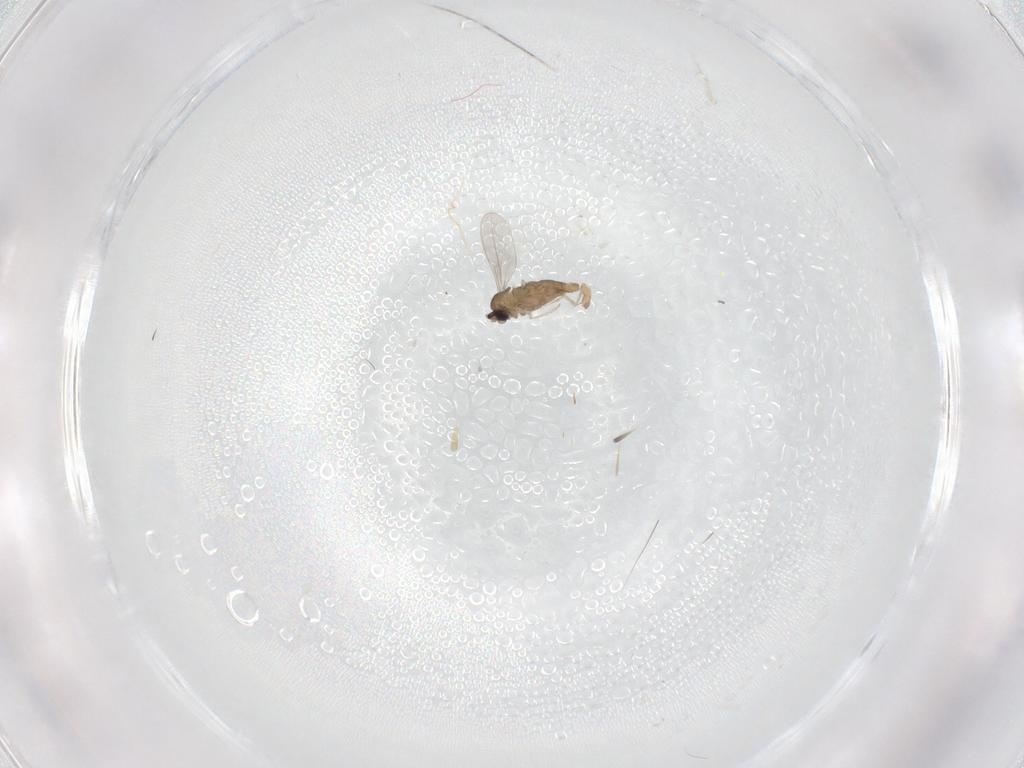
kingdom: Animalia
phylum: Arthropoda
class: Insecta
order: Diptera
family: Cecidomyiidae
